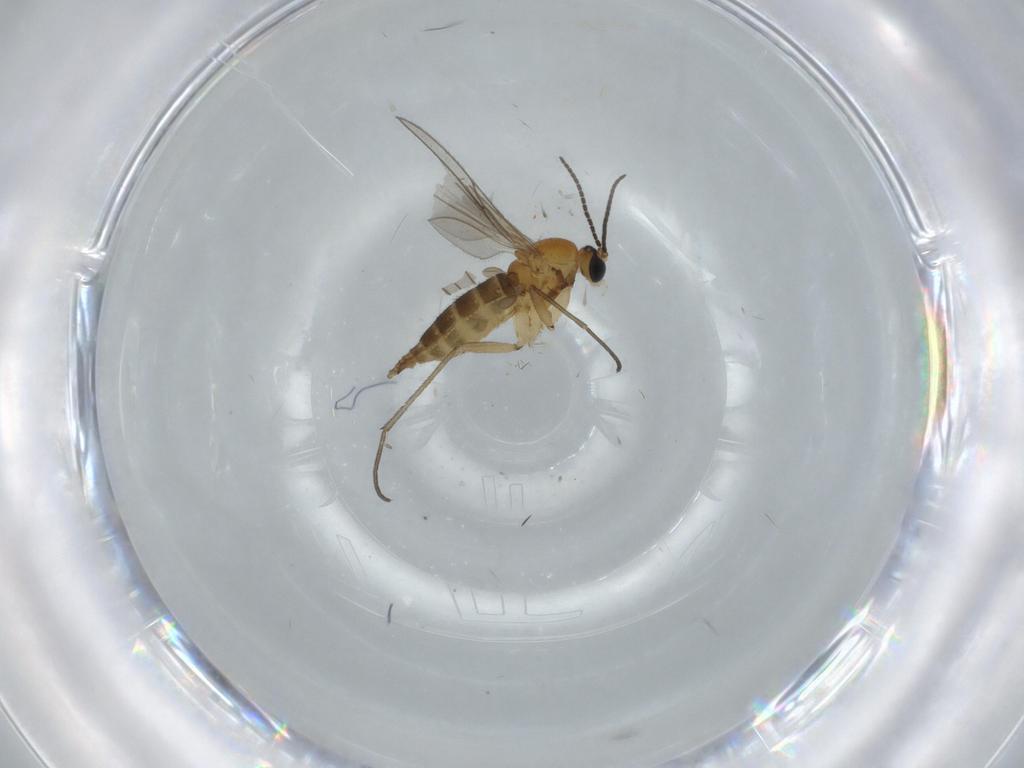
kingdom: Animalia
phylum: Arthropoda
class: Insecta
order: Diptera
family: Sciaridae
